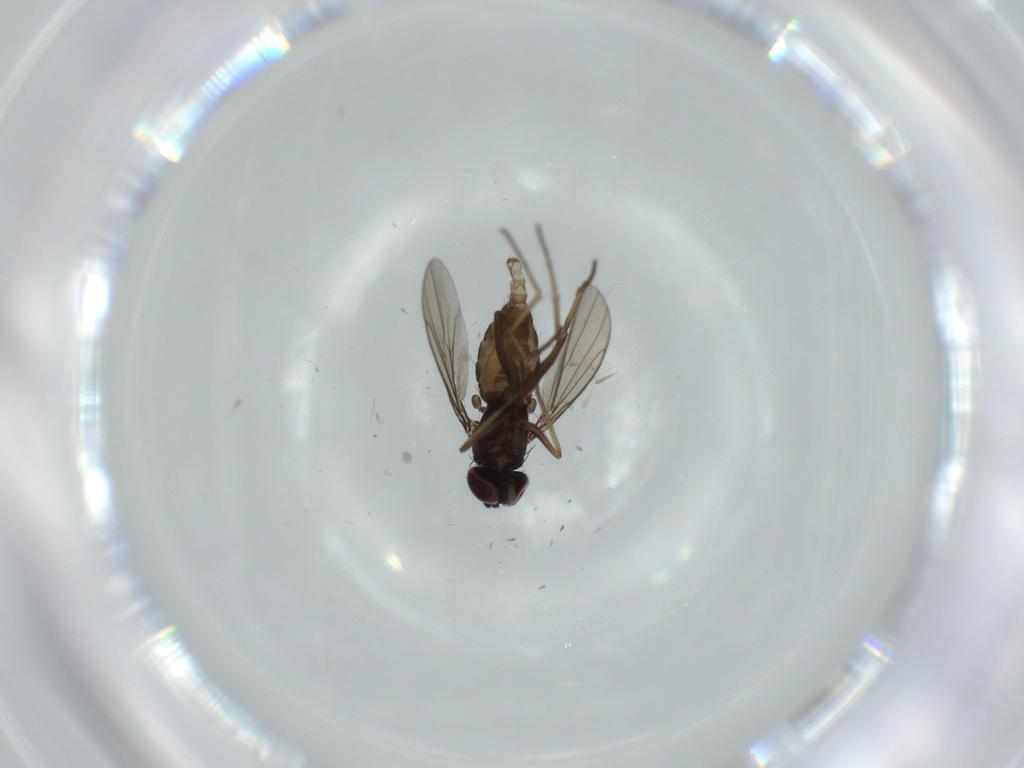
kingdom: Animalia
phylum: Arthropoda
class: Insecta
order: Diptera
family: Dolichopodidae
